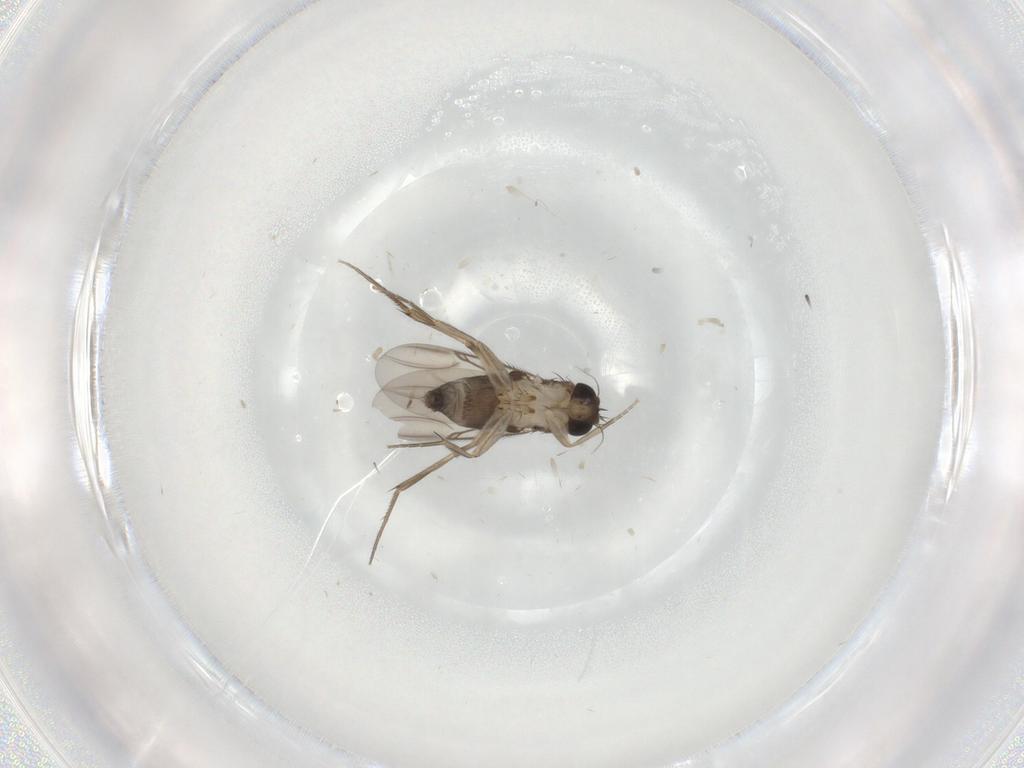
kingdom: Animalia
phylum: Arthropoda
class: Insecta
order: Diptera
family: Phoridae
